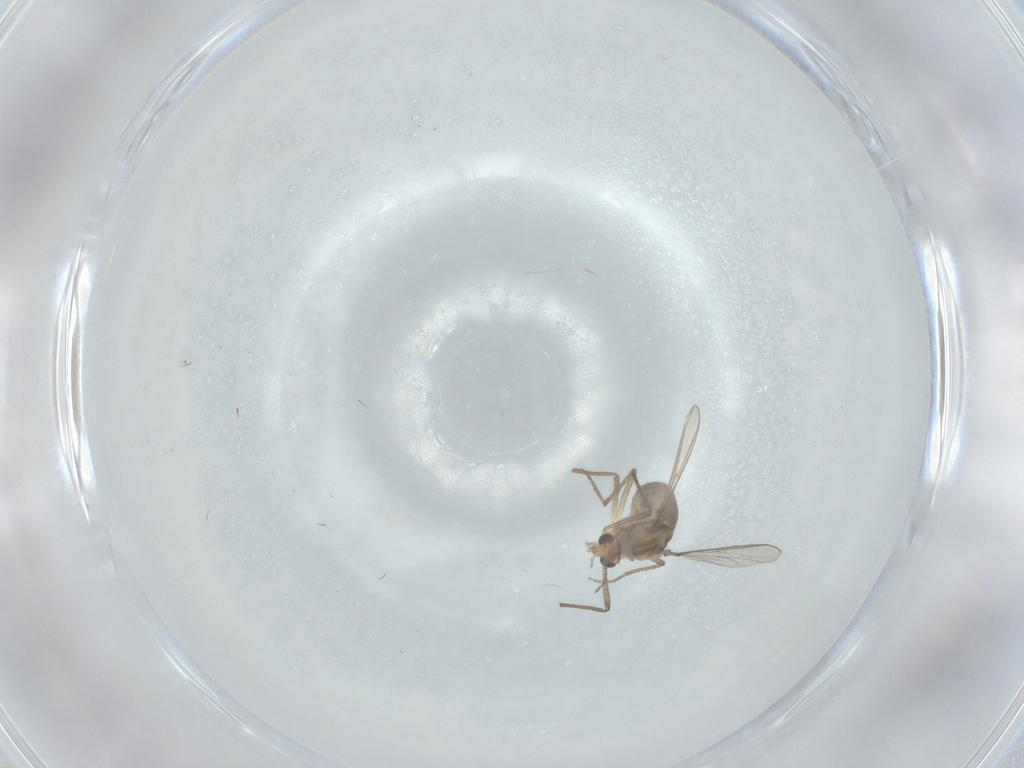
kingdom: Animalia
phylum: Arthropoda
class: Insecta
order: Diptera
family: Chironomidae
